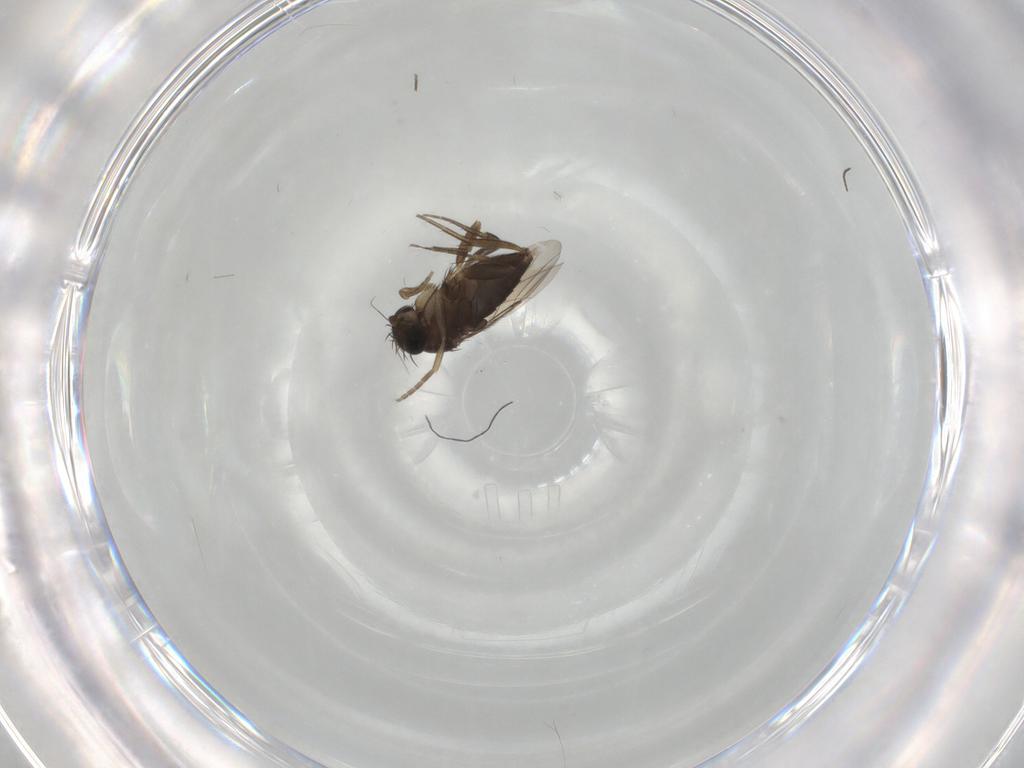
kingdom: Animalia
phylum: Arthropoda
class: Insecta
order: Diptera
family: Phoridae
